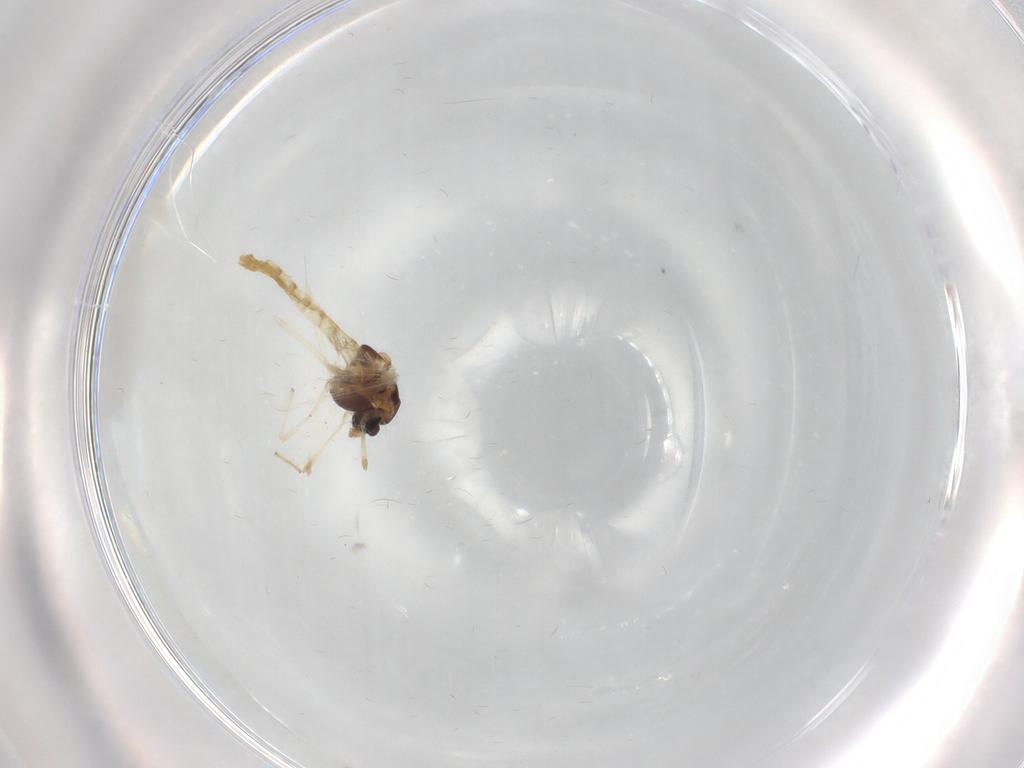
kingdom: Animalia
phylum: Arthropoda
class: Insecta
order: Diptera
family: Chironomidae
